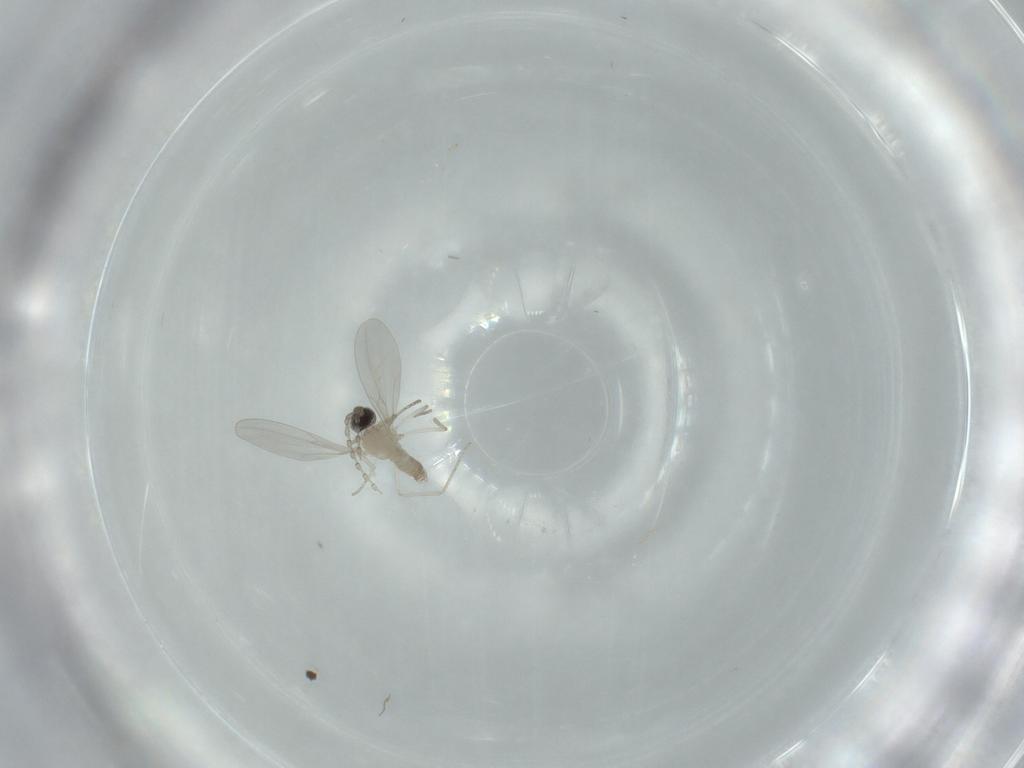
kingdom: Animalia
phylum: Arthropoda
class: Insecta
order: Diptera
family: Cecidomyiidae
